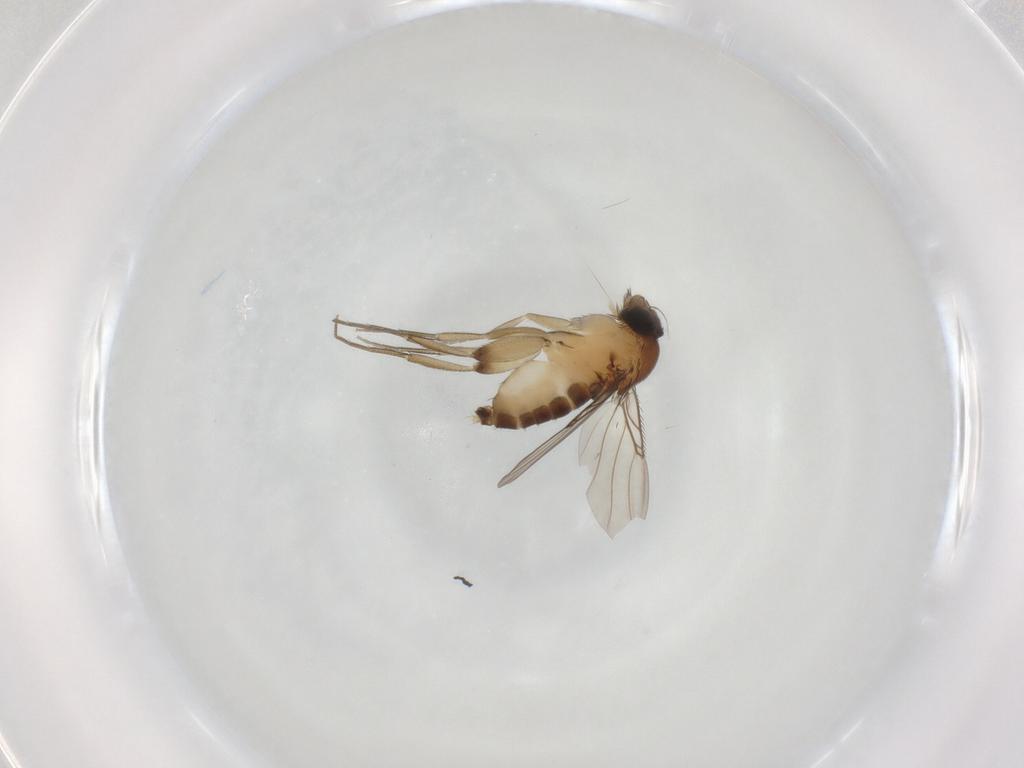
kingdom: Animalia
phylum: Arthropoda
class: Insecta
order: Diptera
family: Phoridae
